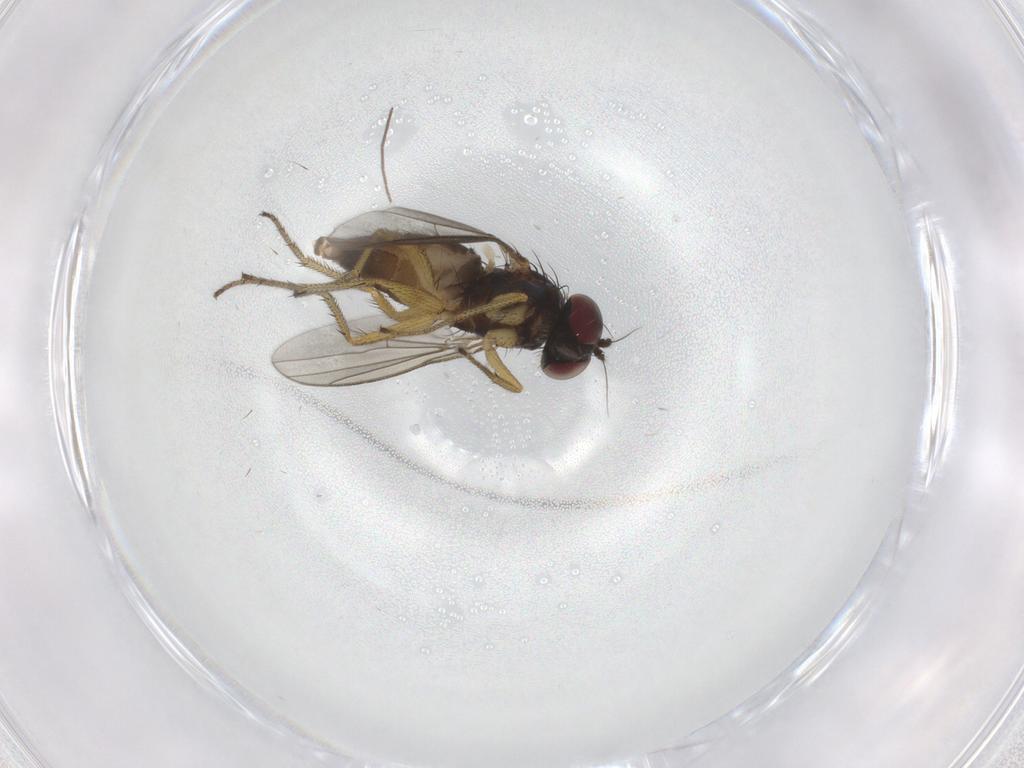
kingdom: Animalia
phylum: Arthropoda
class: Insecta
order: Diptera
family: Dolichopodidae
